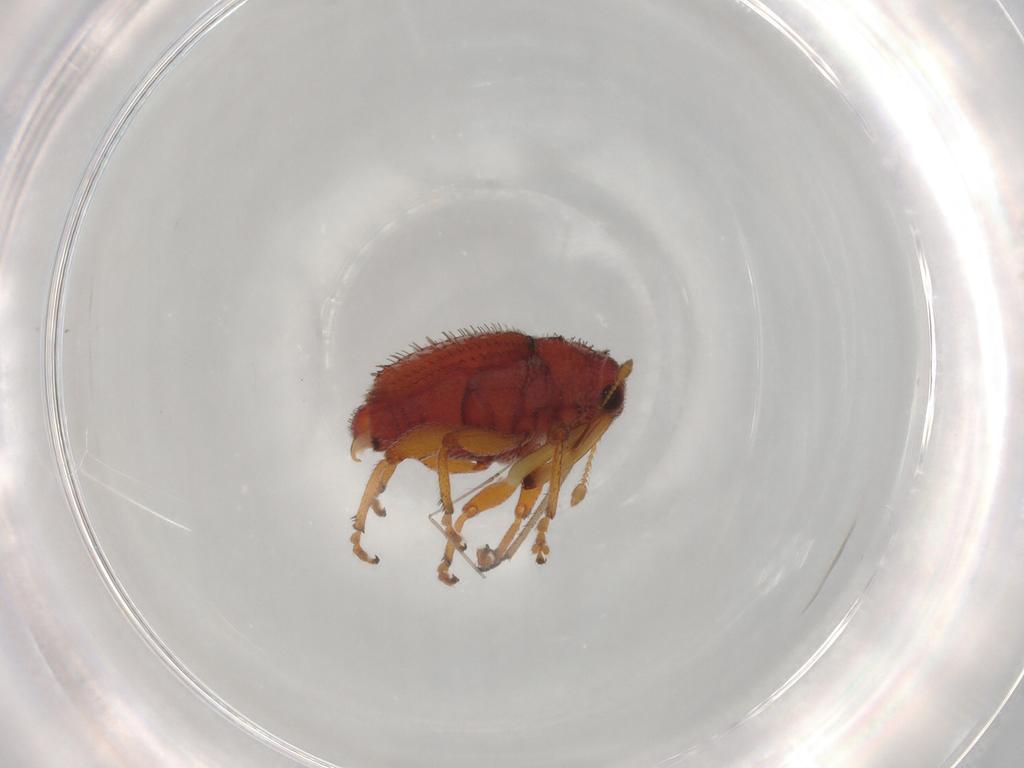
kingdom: Animalia
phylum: Arthropoda
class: Insecta
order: Coleoptera
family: Curculionidae
